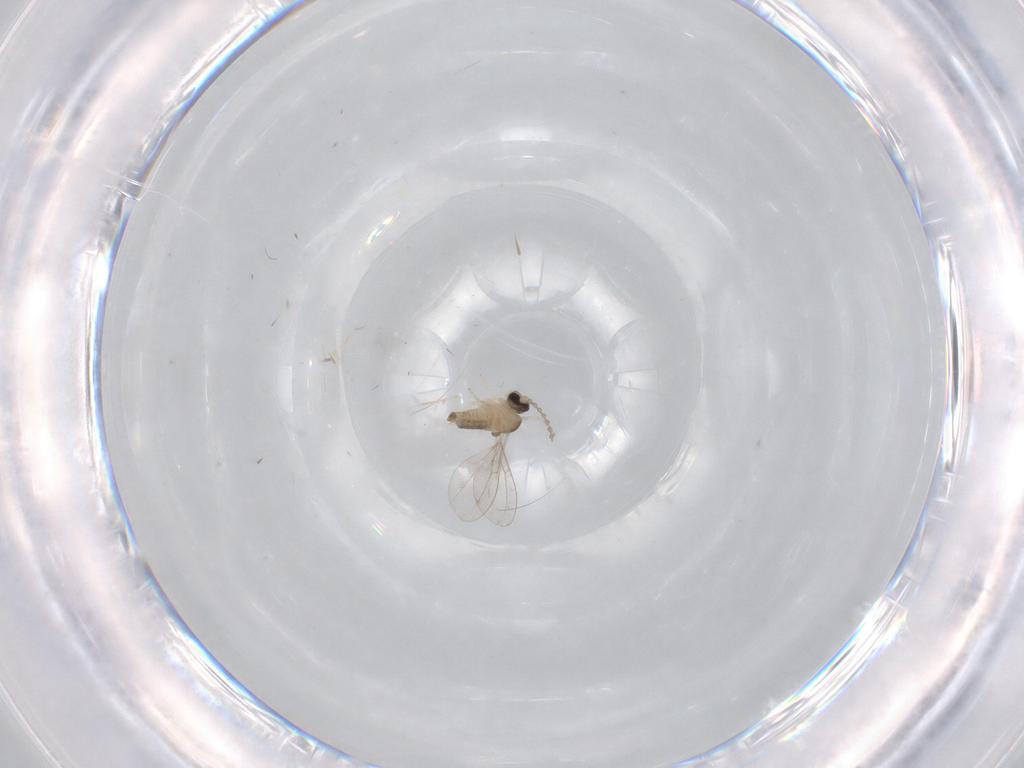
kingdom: Animalia
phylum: Arthropoda
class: Insecta
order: Diptera
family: Cecidomyiidae
